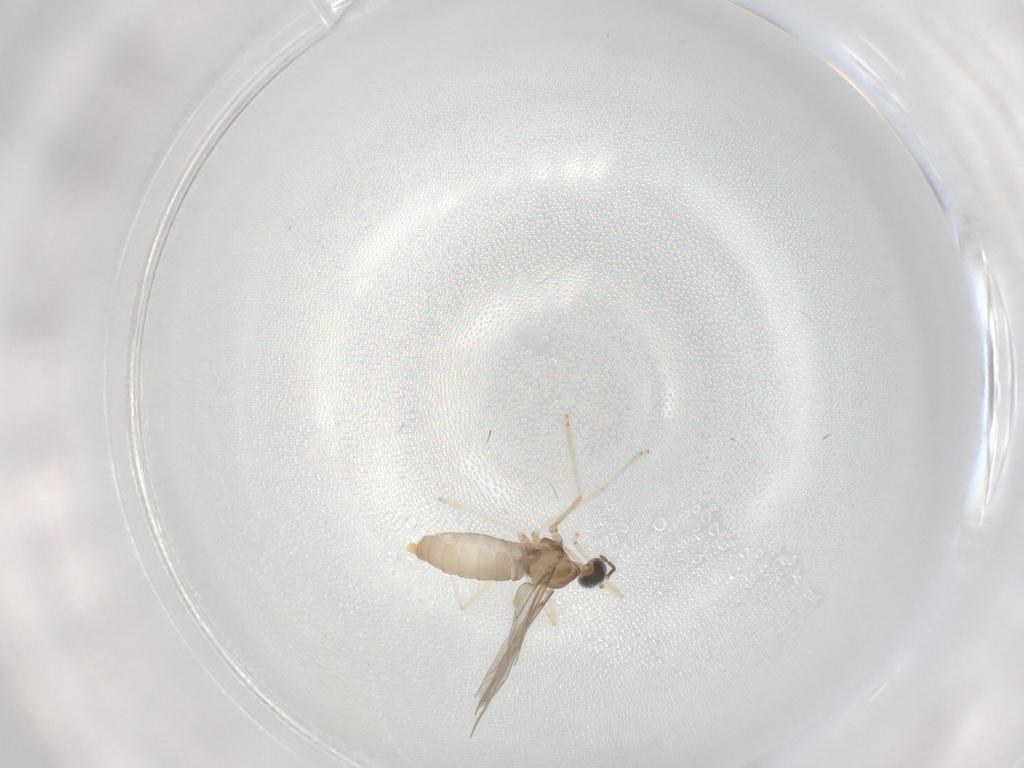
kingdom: Animalia
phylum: Arthropoda
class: Insecta
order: Diptera
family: Cecidomyiidae
